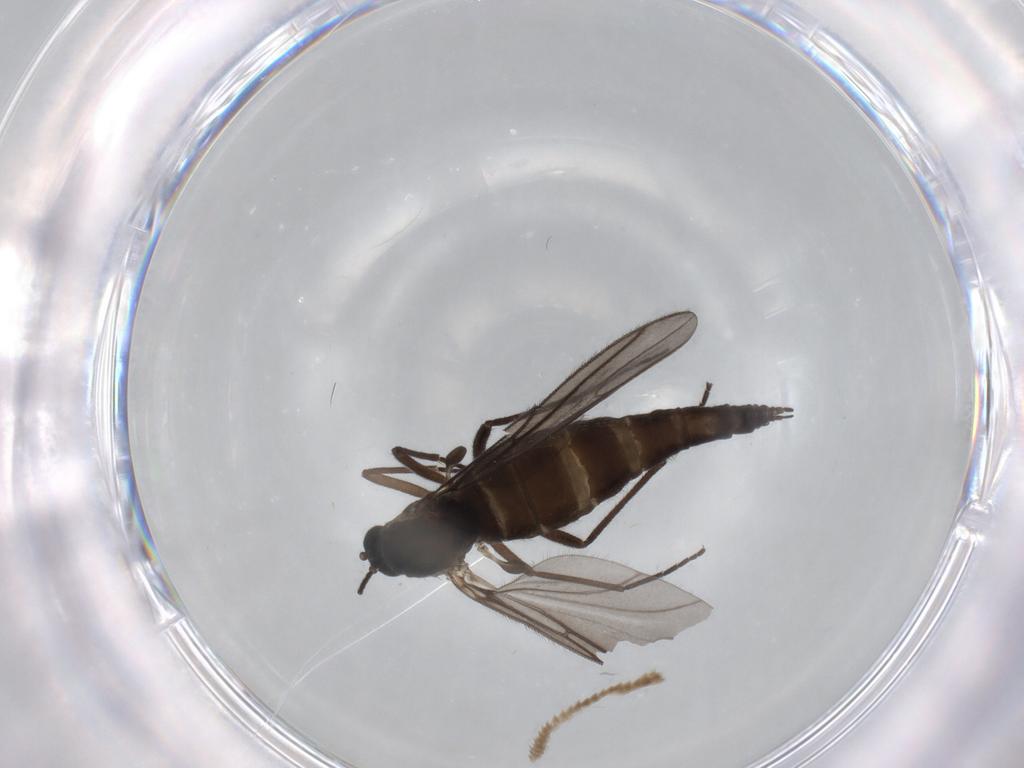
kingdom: Animalia
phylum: Arthropoda
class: Insecta
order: Diptera
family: Sciaridae
